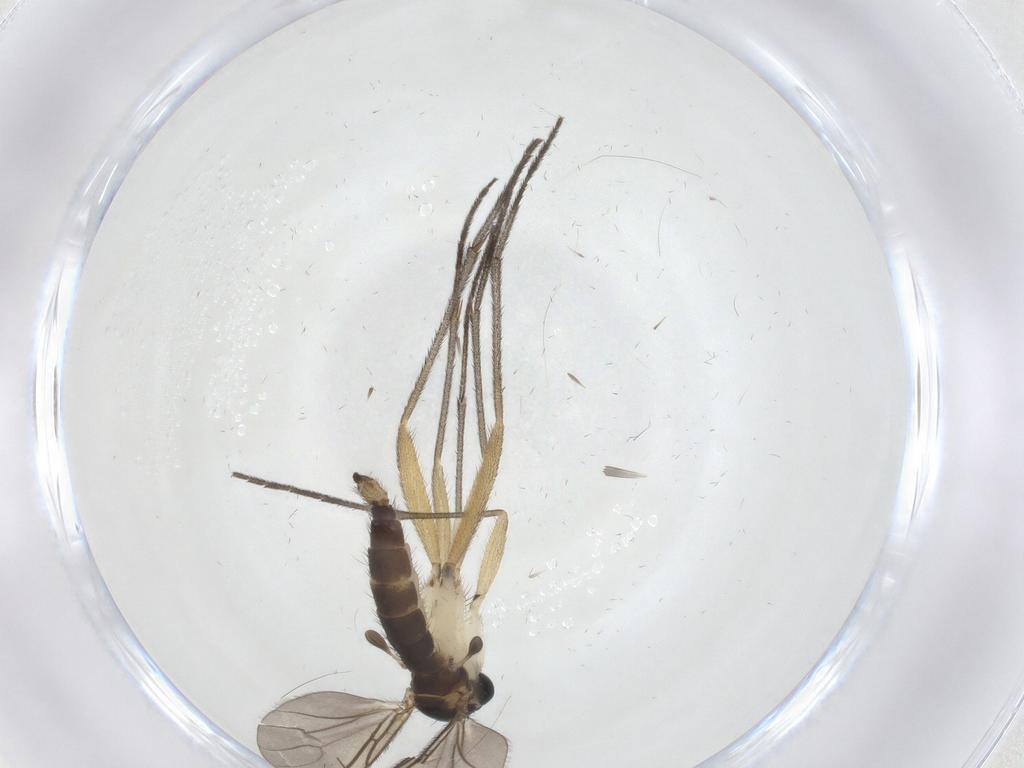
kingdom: Animalia
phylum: Arthropoda
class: Insecta
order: Diptera
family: Sciaridae
